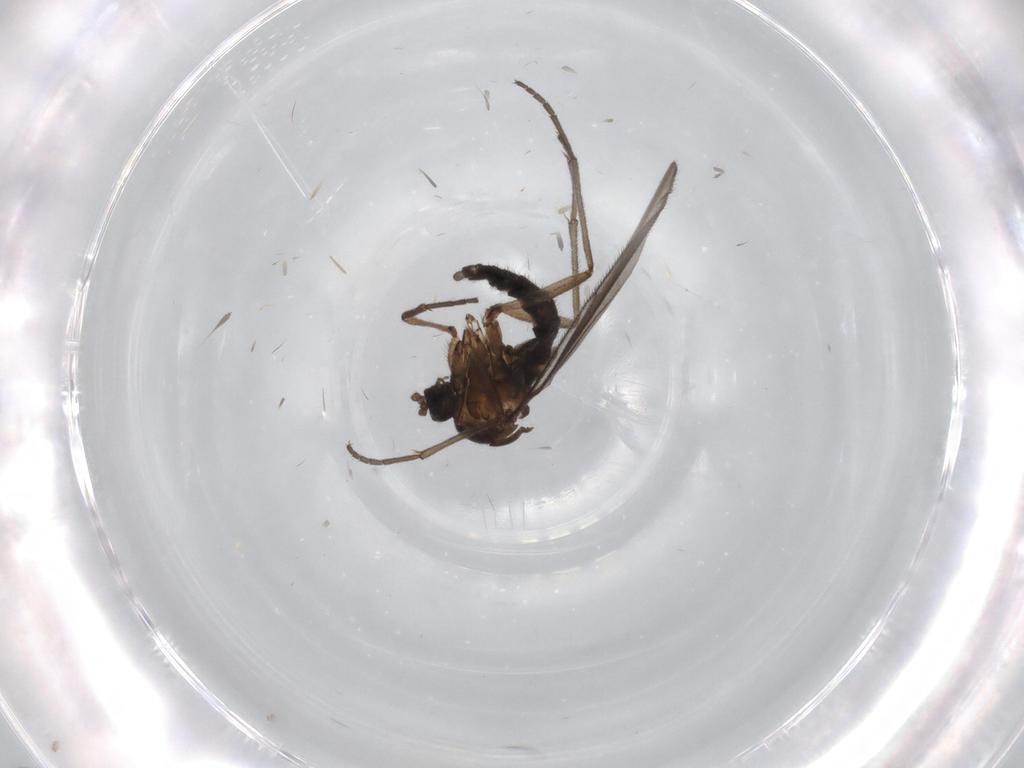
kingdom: Animalia
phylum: Arthropoda
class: Insecta
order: Diptera
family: Sciaridae
